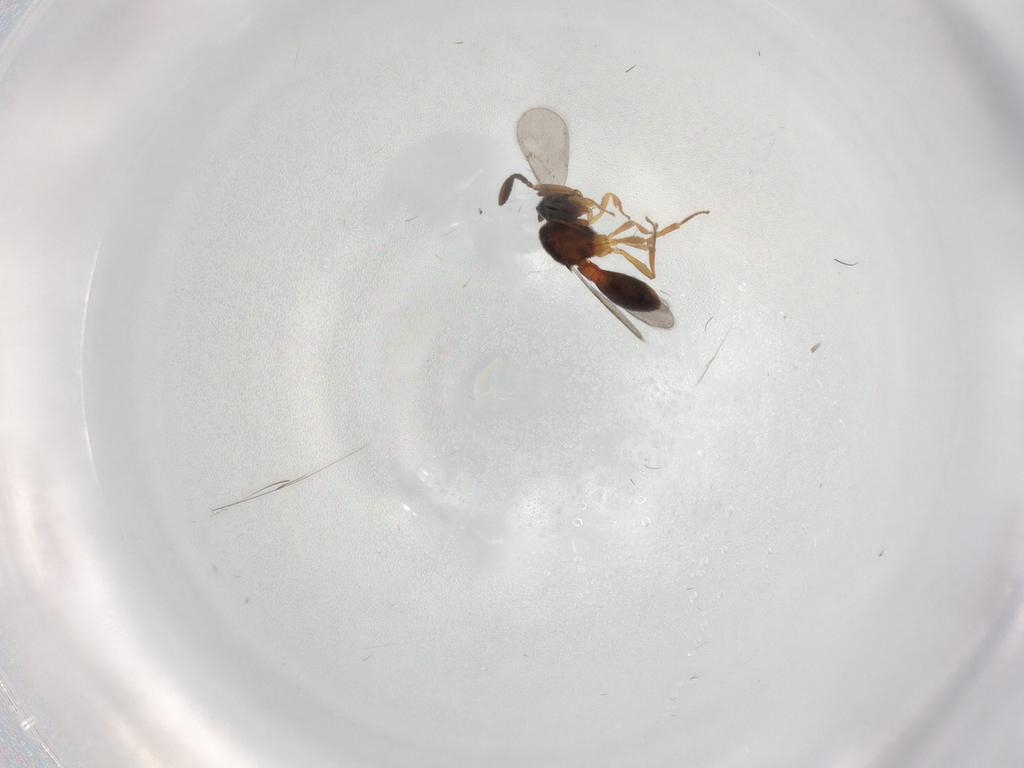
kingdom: Animalia
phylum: Arthropoda
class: Insecta
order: Hymenoptera
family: Scelionidae
